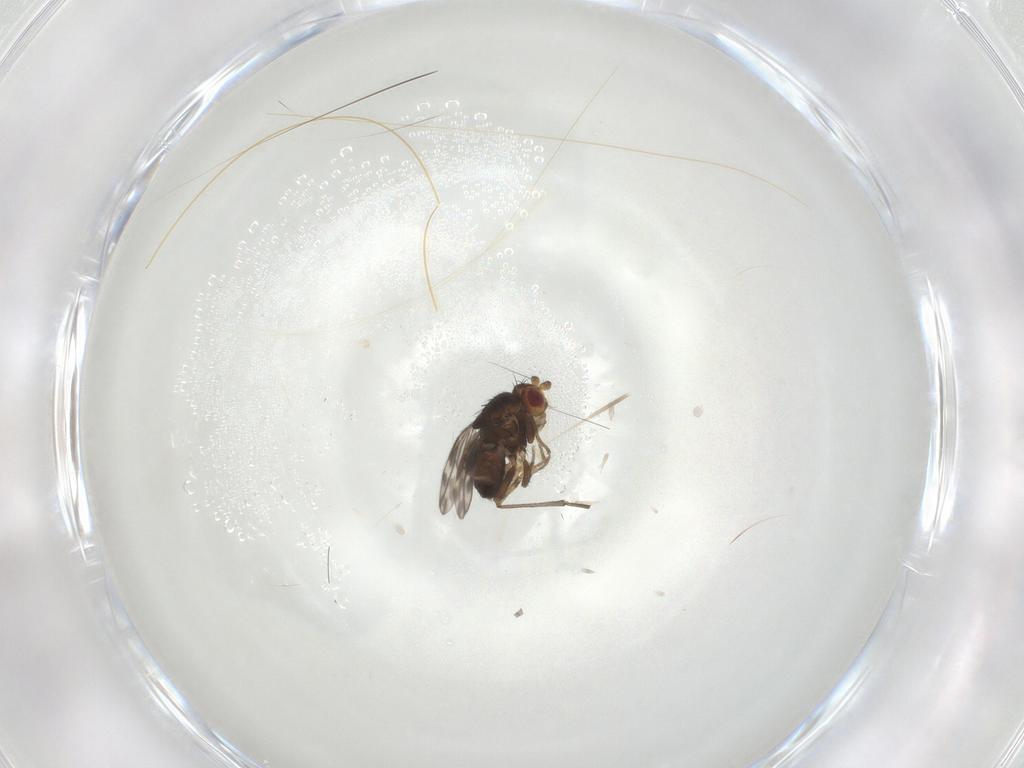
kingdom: Animalia
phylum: Arthropoda
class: Insecta
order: Diptera
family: Sphaeroceridae
